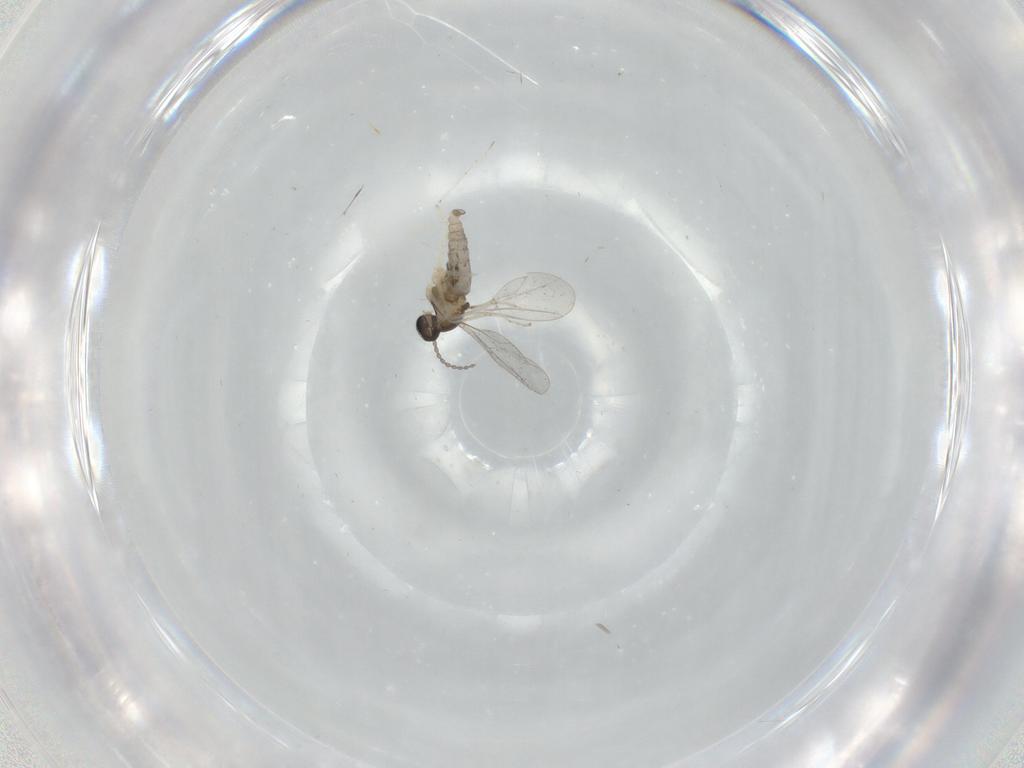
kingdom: Animalia
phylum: Arthropoda
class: Insecta
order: Diptera
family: Cecidomyiidae
